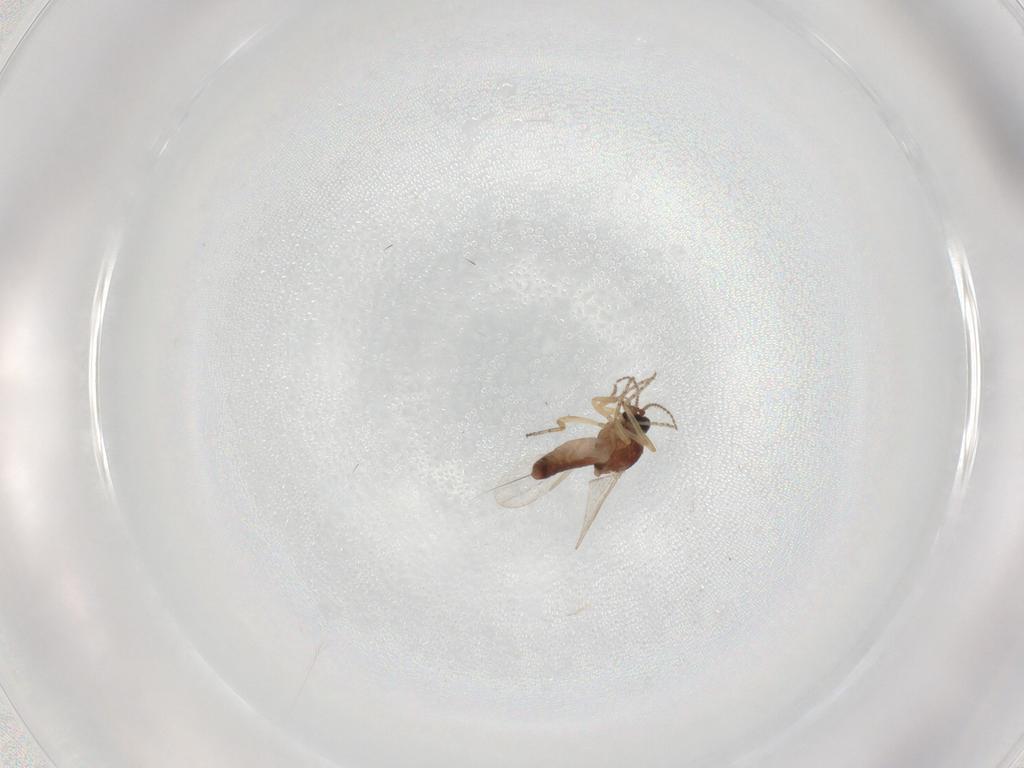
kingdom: Animalia
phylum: Arthropoda
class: Insecta
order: Diptera
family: Ceratopogonidae
